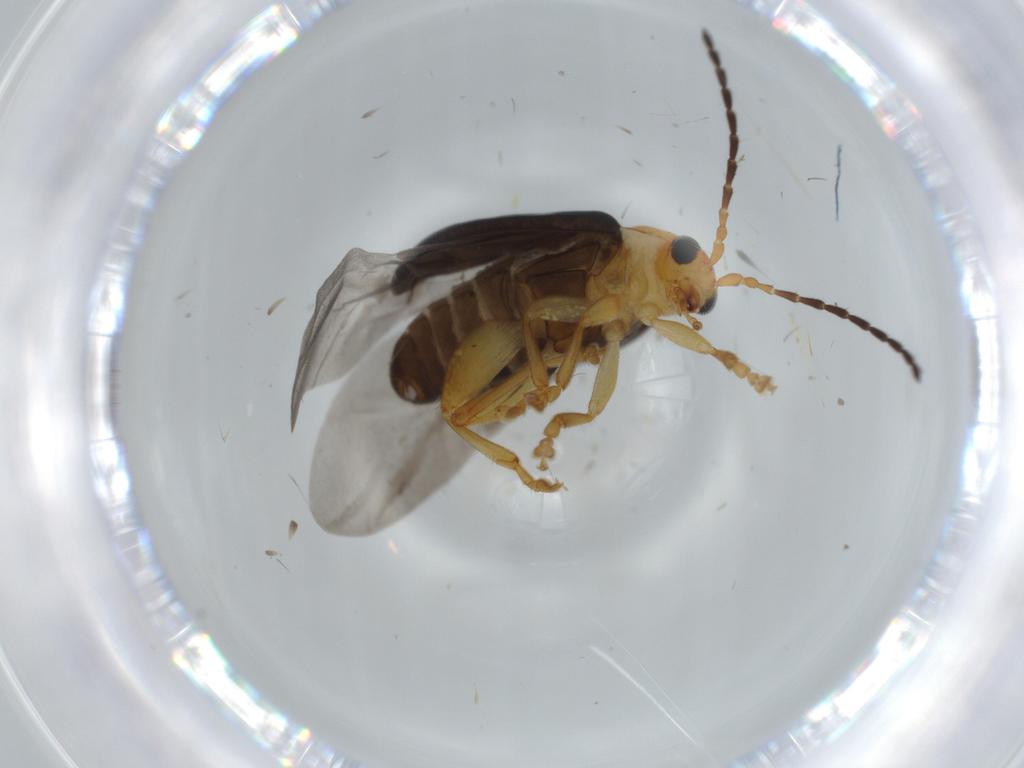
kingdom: Animalia
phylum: Arthropoda
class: Insecta
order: Coleoptera
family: Chrysomelidae
